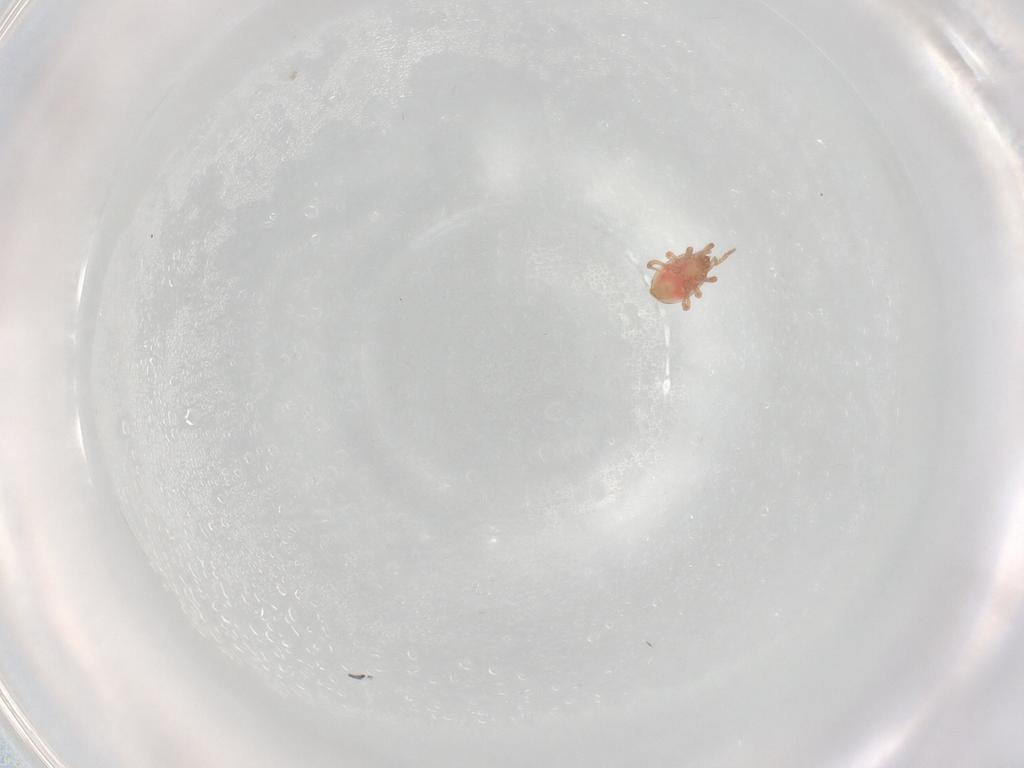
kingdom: Animalia
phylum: Arthropoda
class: Arachnida
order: Mesostigmata
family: Ologamasidae
